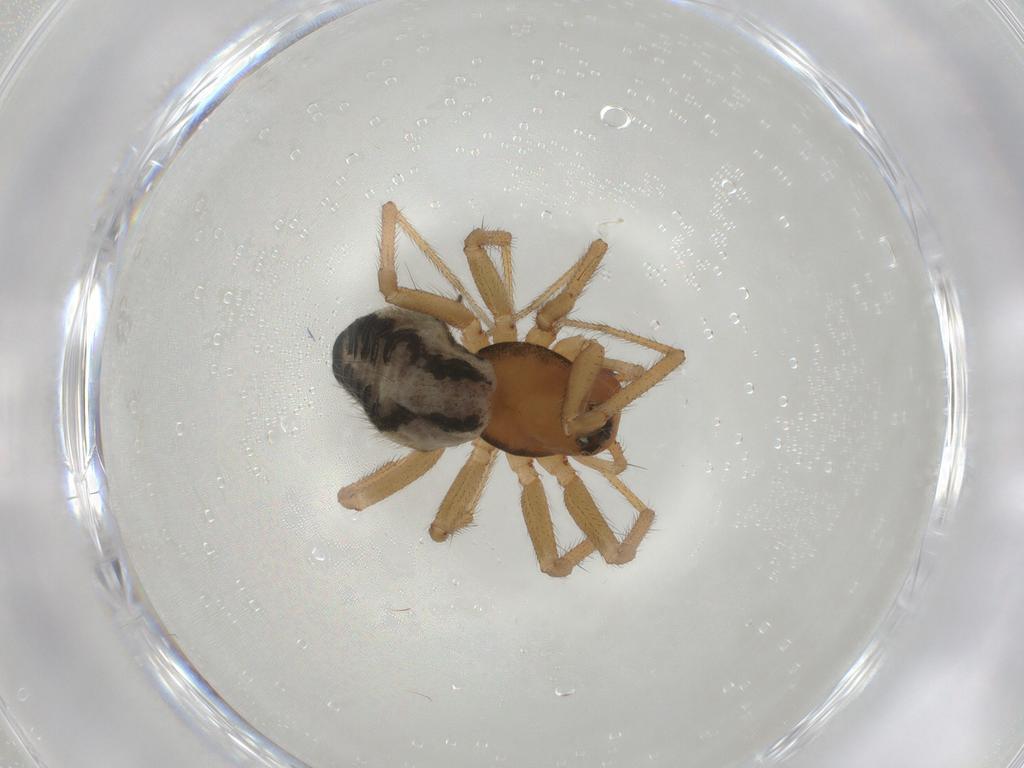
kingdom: Animalia
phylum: Arthropoda
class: Arachnida
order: Araneae
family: Linyphiidae
